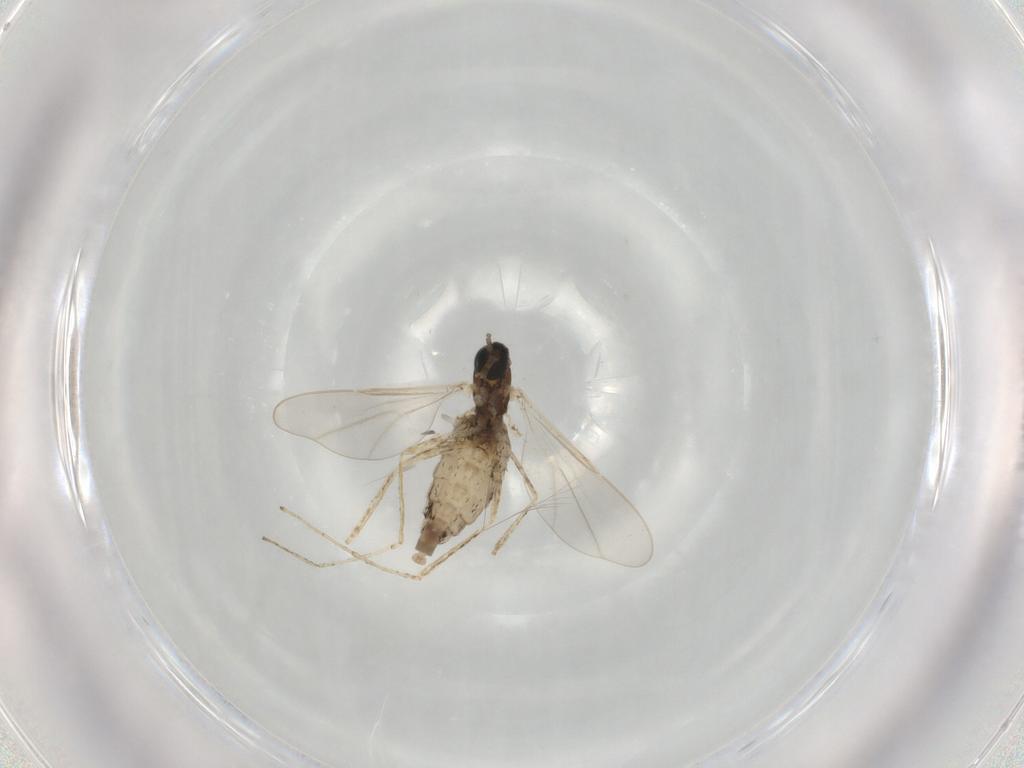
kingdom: Animalia
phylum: Arthropoda
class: Insecta
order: Diptera
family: Cecidomyiidae
